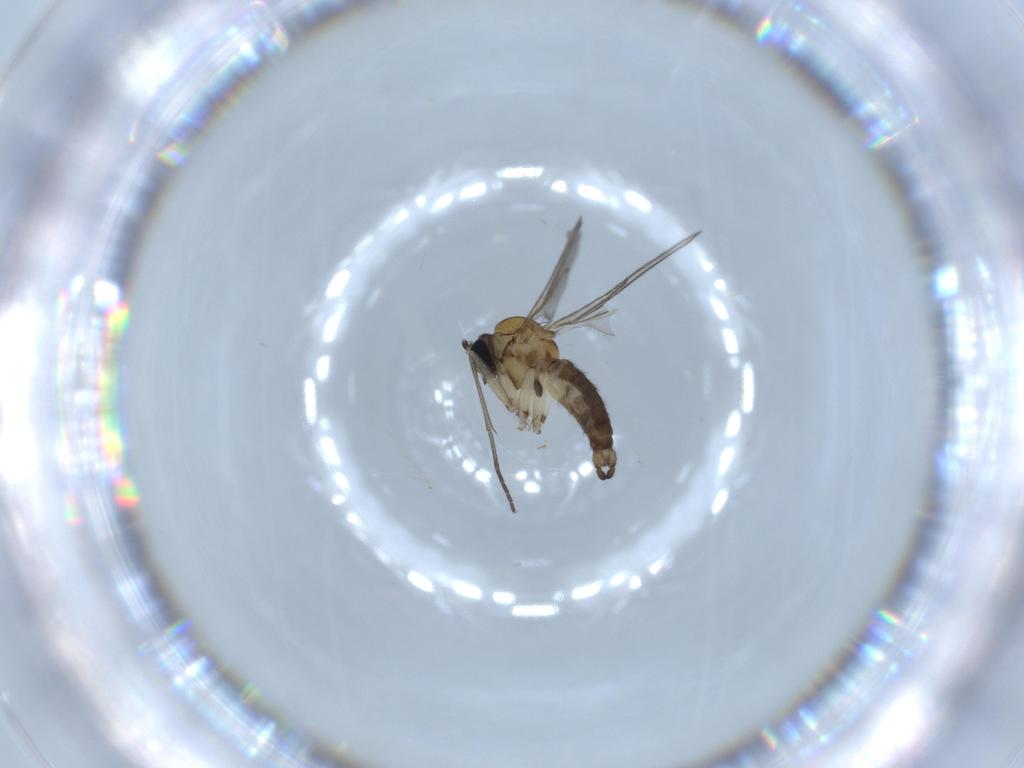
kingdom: Animalia
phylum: Arthropoda
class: Insecta
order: Diptera
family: Sciaridae
